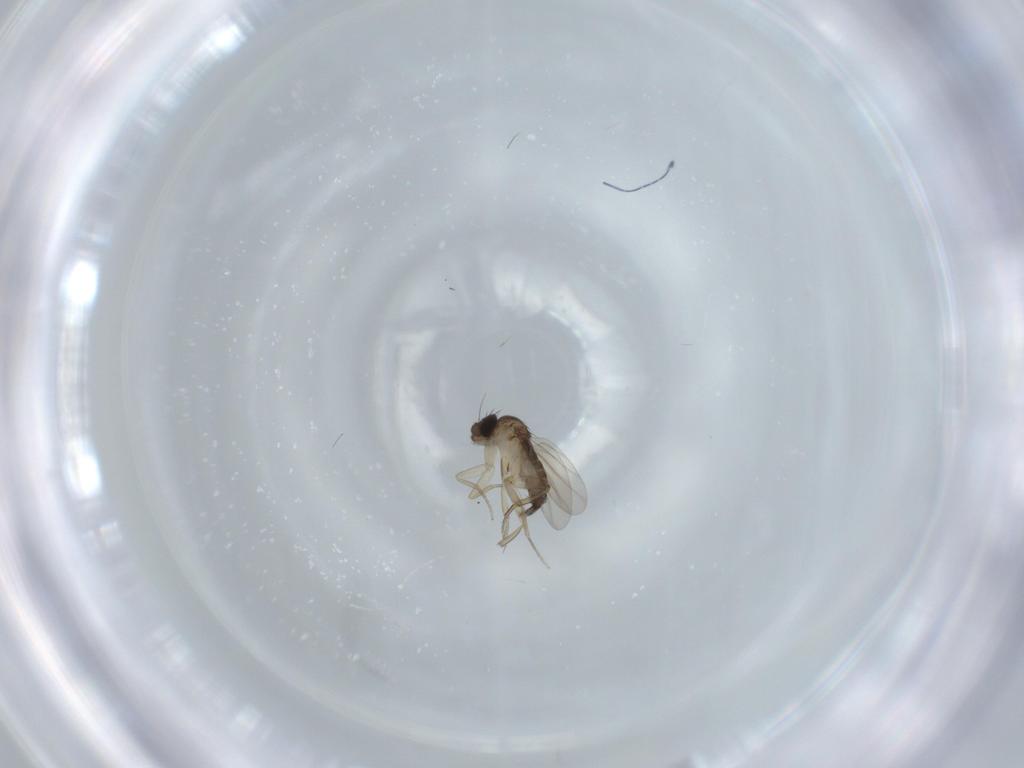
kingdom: Animalia
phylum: Arthropoda
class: Insecta
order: Diptera
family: Phoridae
